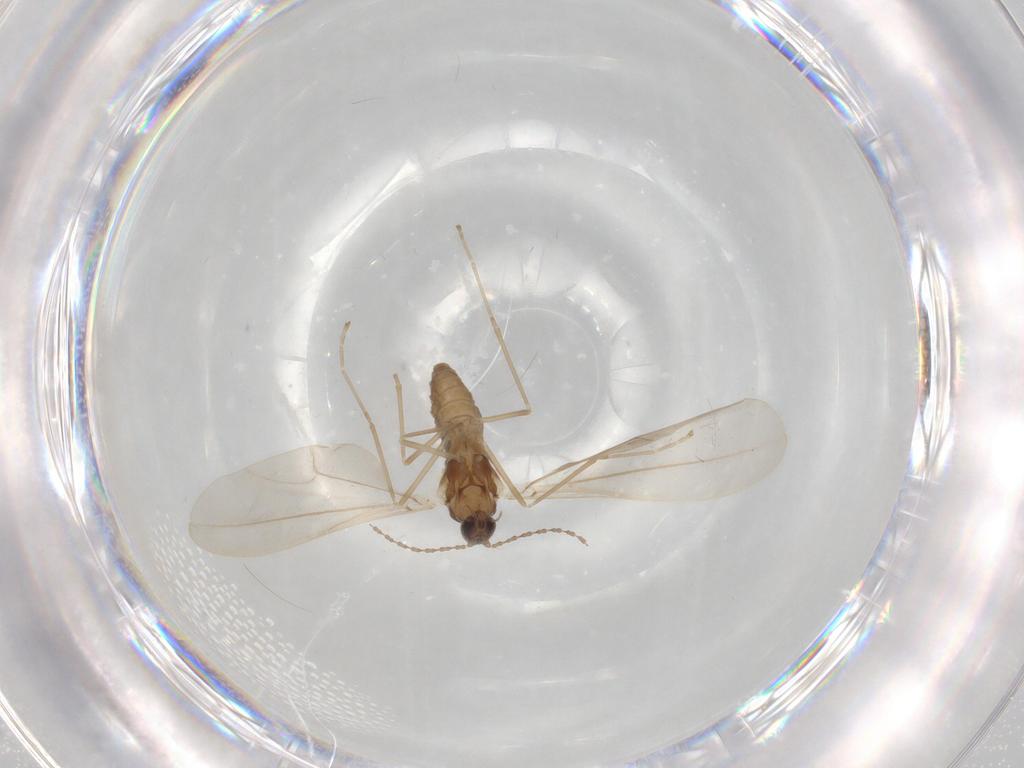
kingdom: Animalia
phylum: Arthropoda
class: Insecta
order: Diptera
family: Cecidomyiidae
